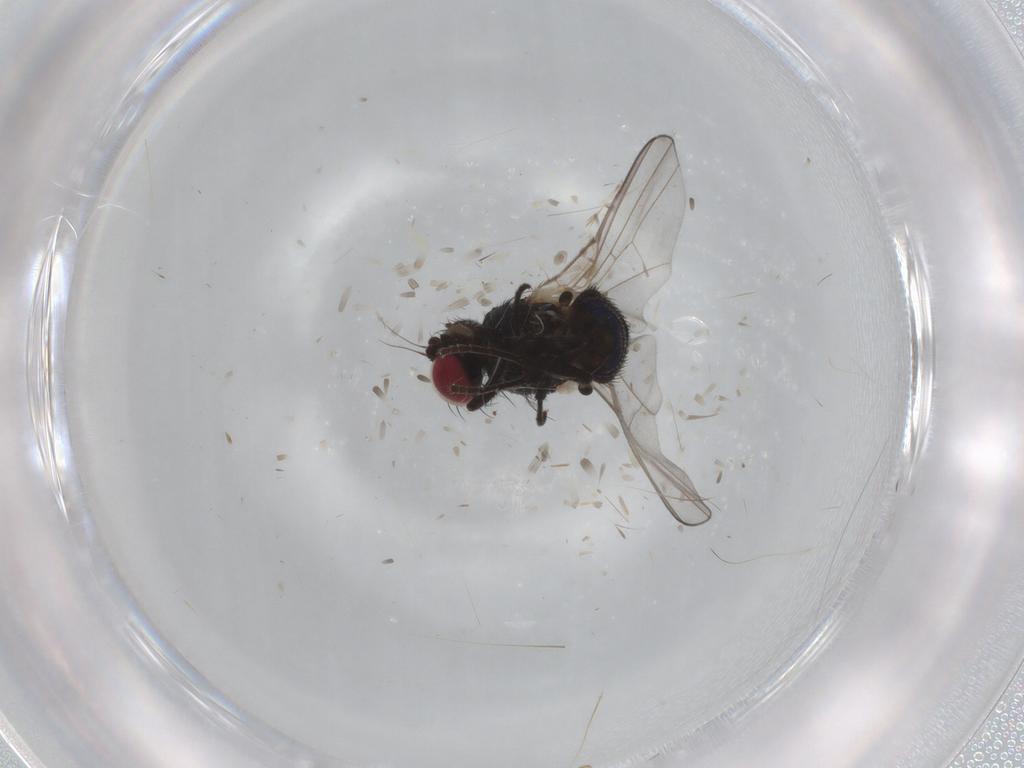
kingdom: Animalia
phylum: Arthropoda
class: Insecta
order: Diptera
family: Agromyzidae
